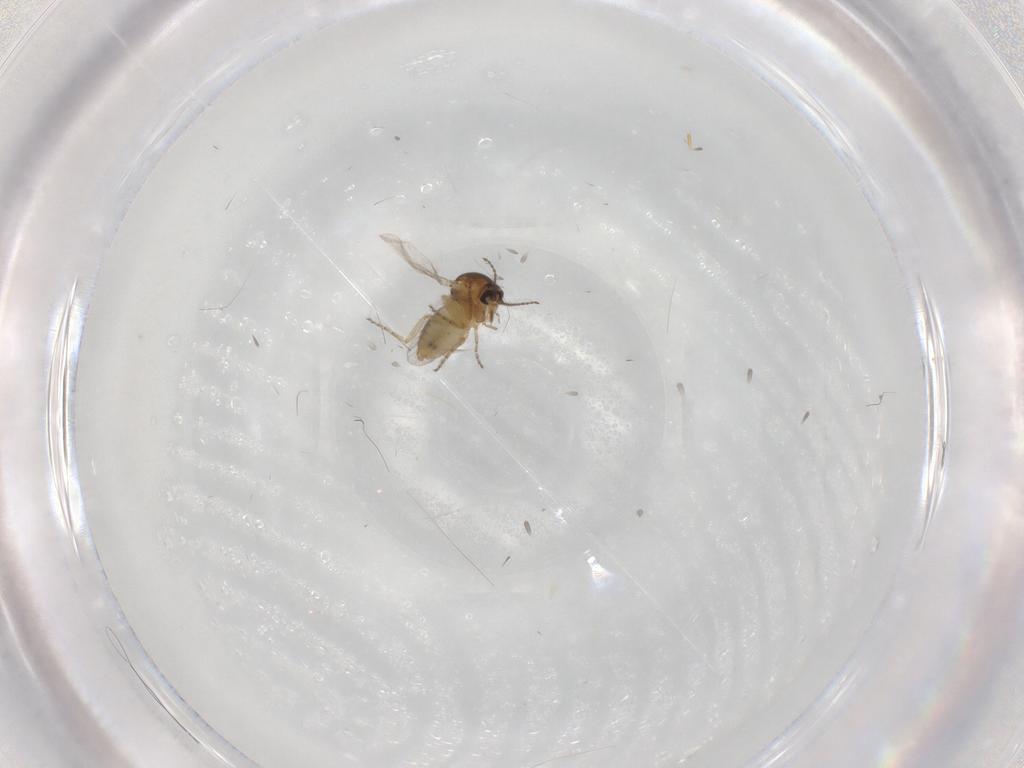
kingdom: Animalia
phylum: Arthropoda
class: Insecta
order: Diptera
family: Ceratopogonidae
